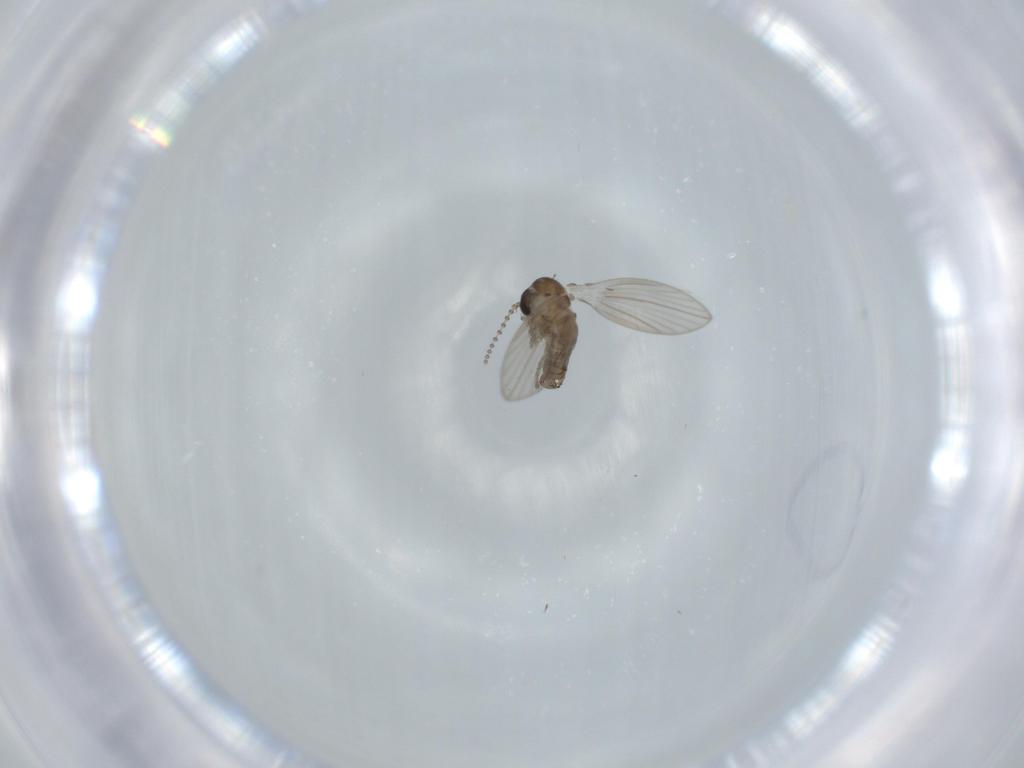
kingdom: Animalia
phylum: Arthropoda
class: Insecta
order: Diptera
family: Psychodidae
